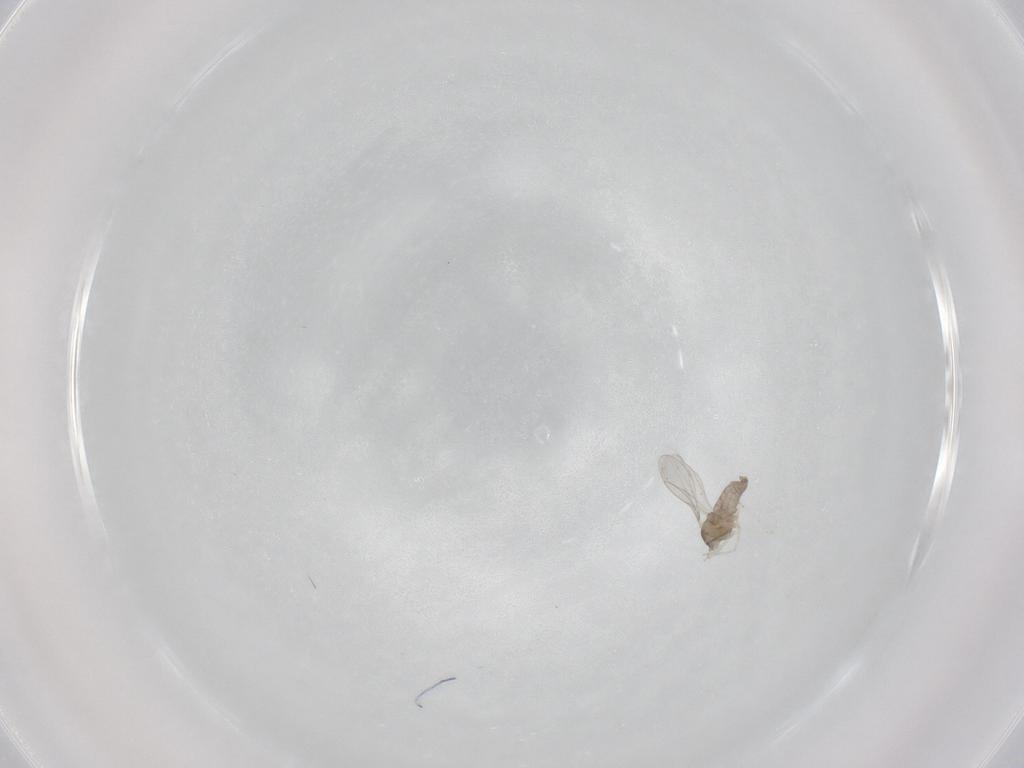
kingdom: Animalia
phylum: Arthropoda
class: Insecta
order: Diptera
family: Cecidomyiidae
